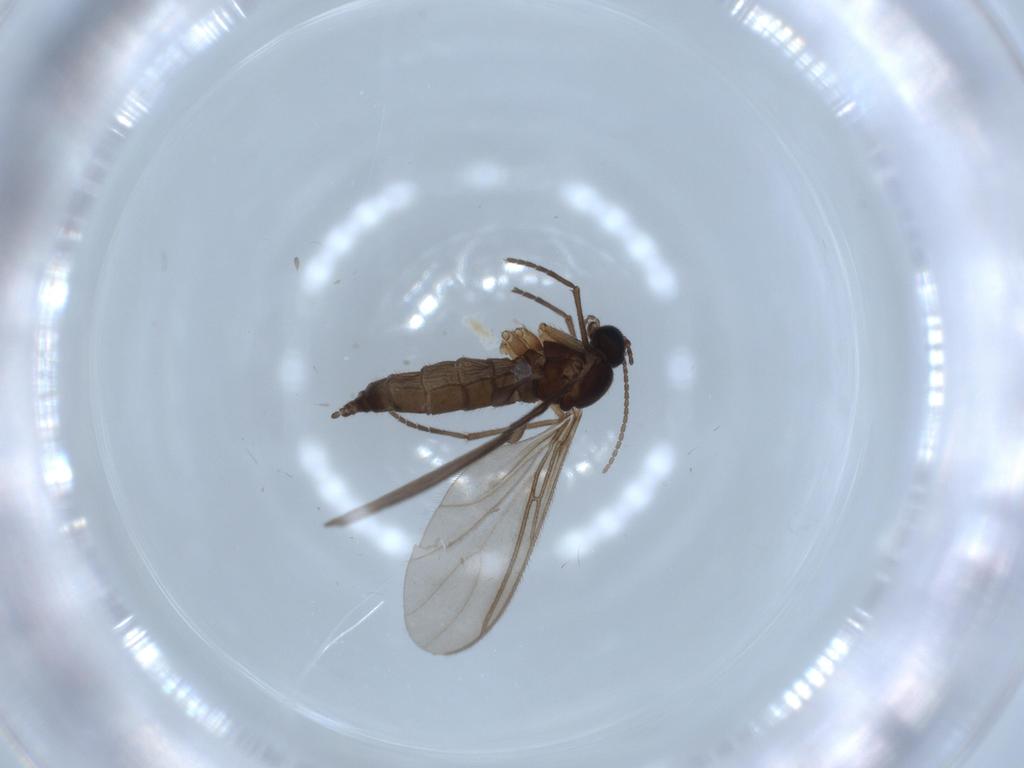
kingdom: Animalia
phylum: Arthropoda
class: Insecta
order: Diptera
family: Sciaridae
